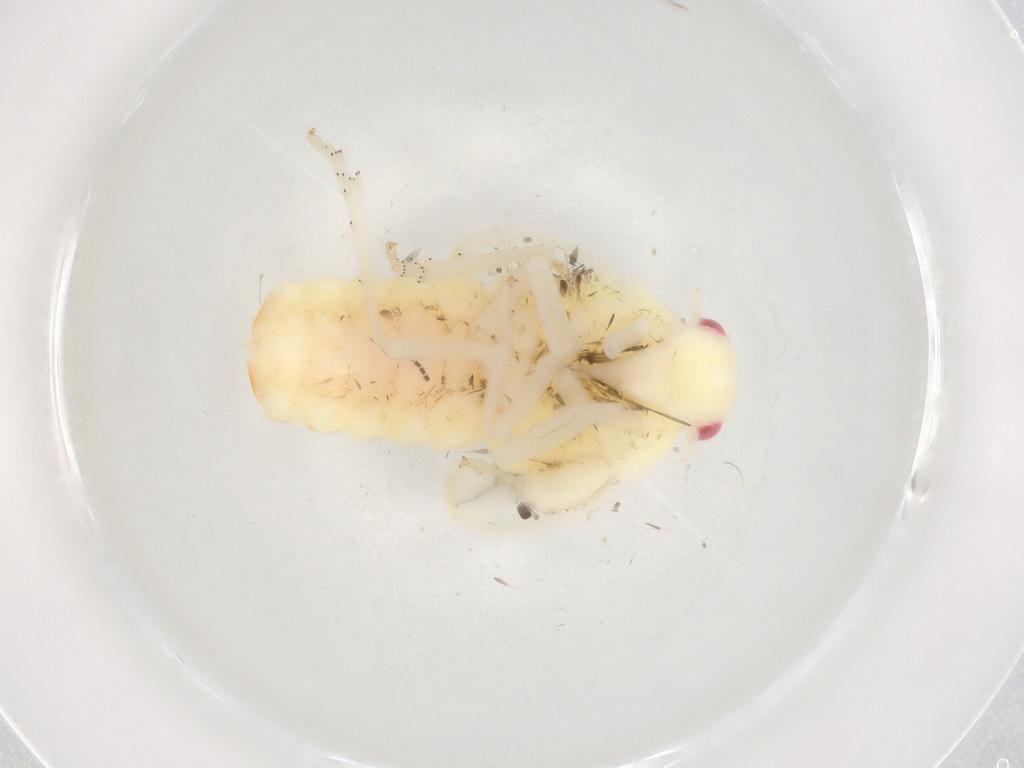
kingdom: Animalia
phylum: Arthropoda
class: Insecta
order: Hemiptera
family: Flatidae
